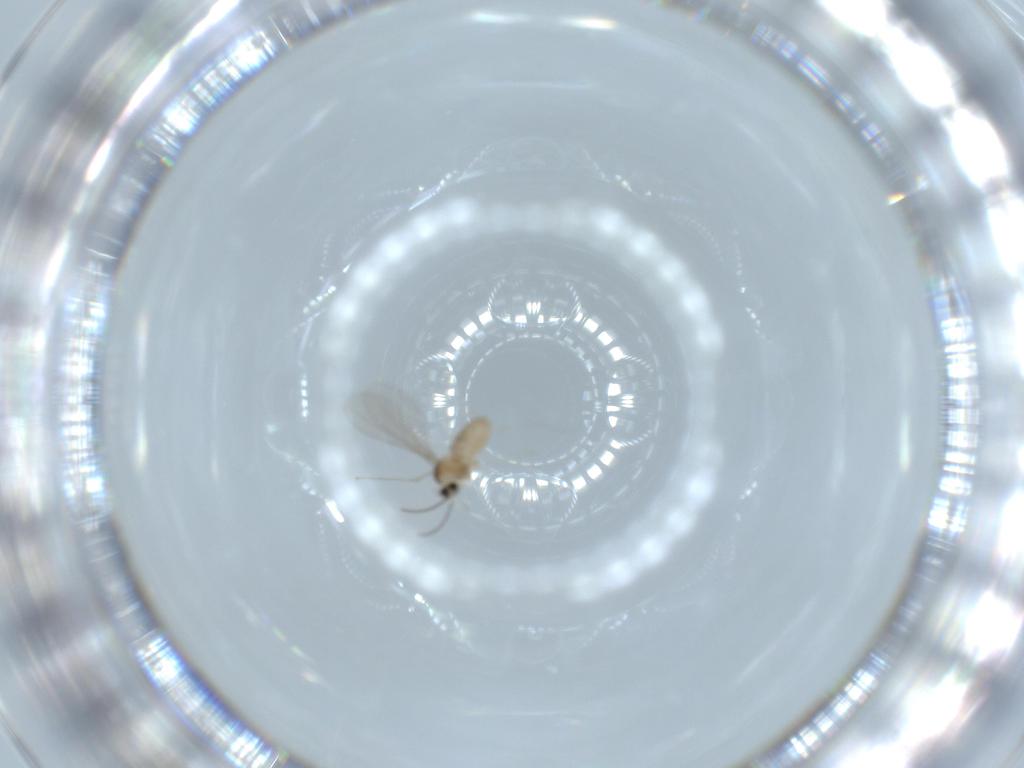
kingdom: Animalia
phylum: Arthropoda
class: Insecta
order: Diptera
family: Cecidomyiidae
